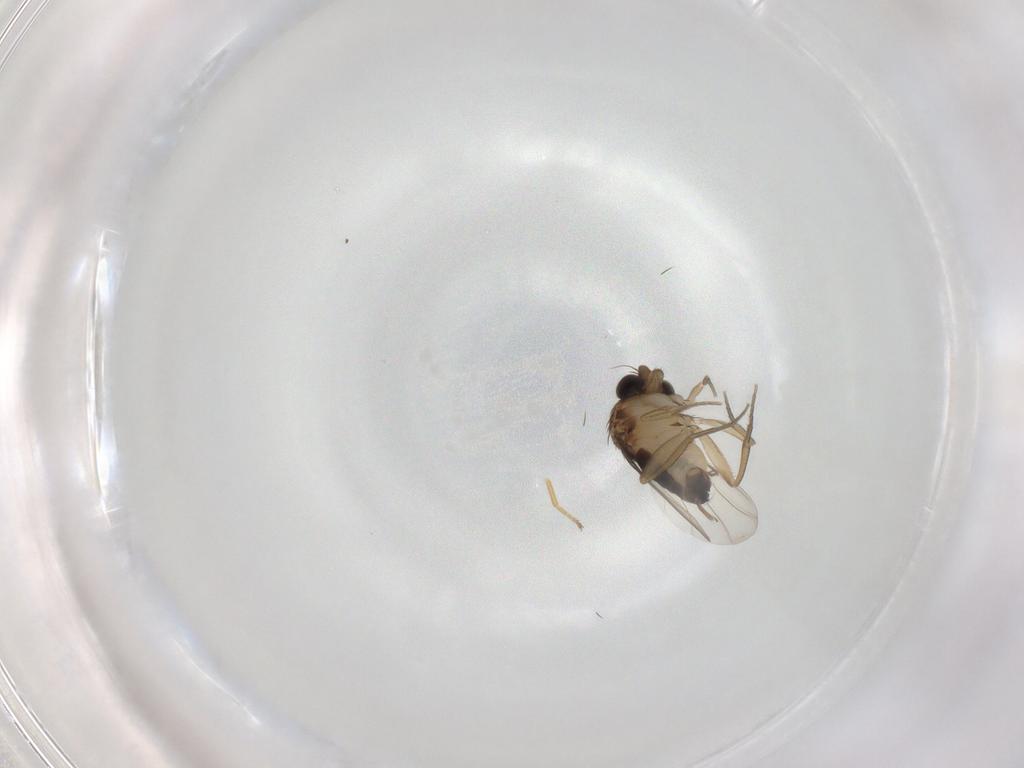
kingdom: Animalia
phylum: Arthropoda
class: Insecta
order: Diptera
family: Phoridae
